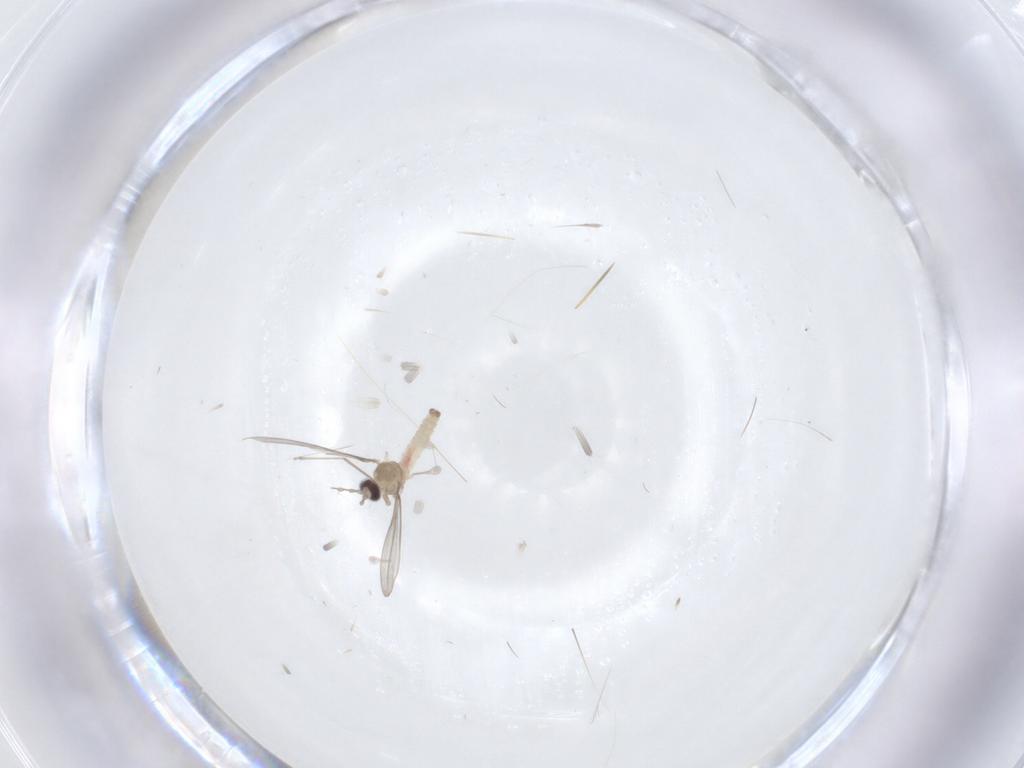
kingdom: Animalia
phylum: Arthropoda
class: Insecta
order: Diptera
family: Cecidomyiidae
